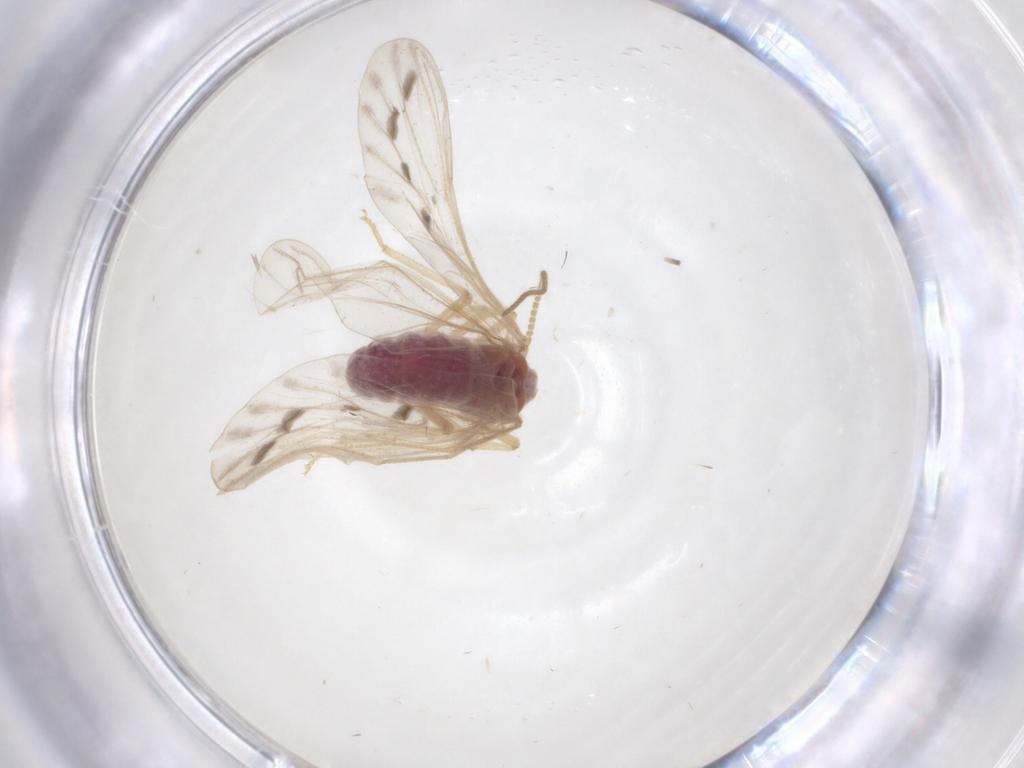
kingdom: Animalia
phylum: Arthropoda
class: Insecta
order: Neuroptera
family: Coniopterygidae
